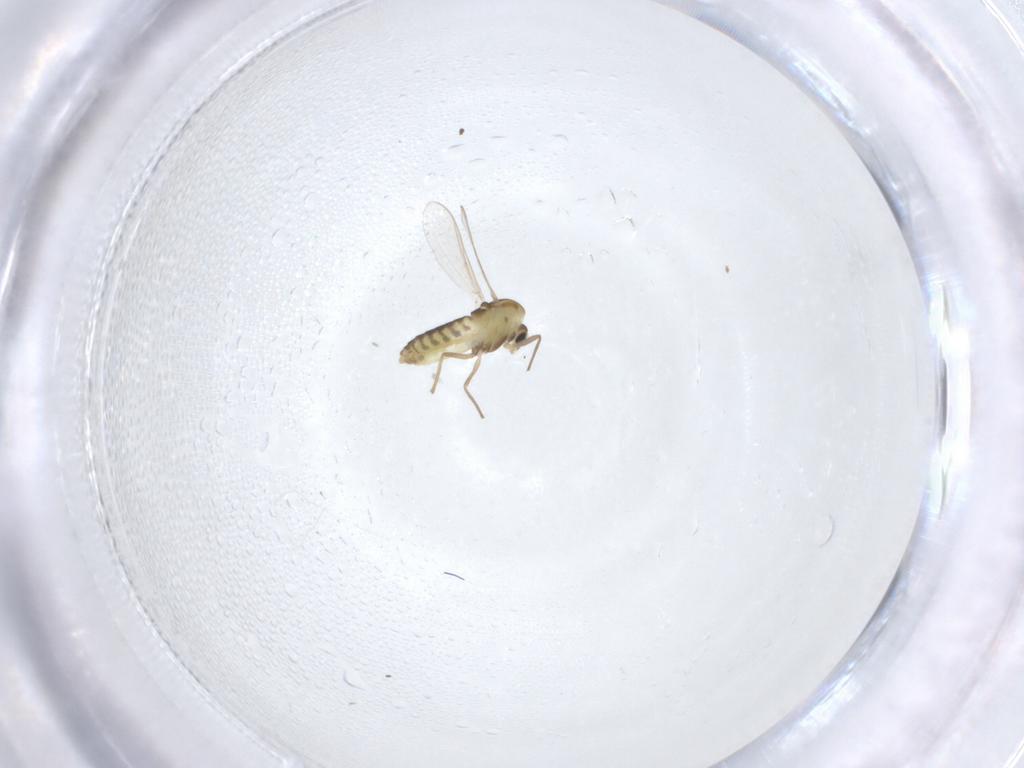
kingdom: Animalia
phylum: Arthropoda
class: Insecta
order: Diptera
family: Chironomidae
